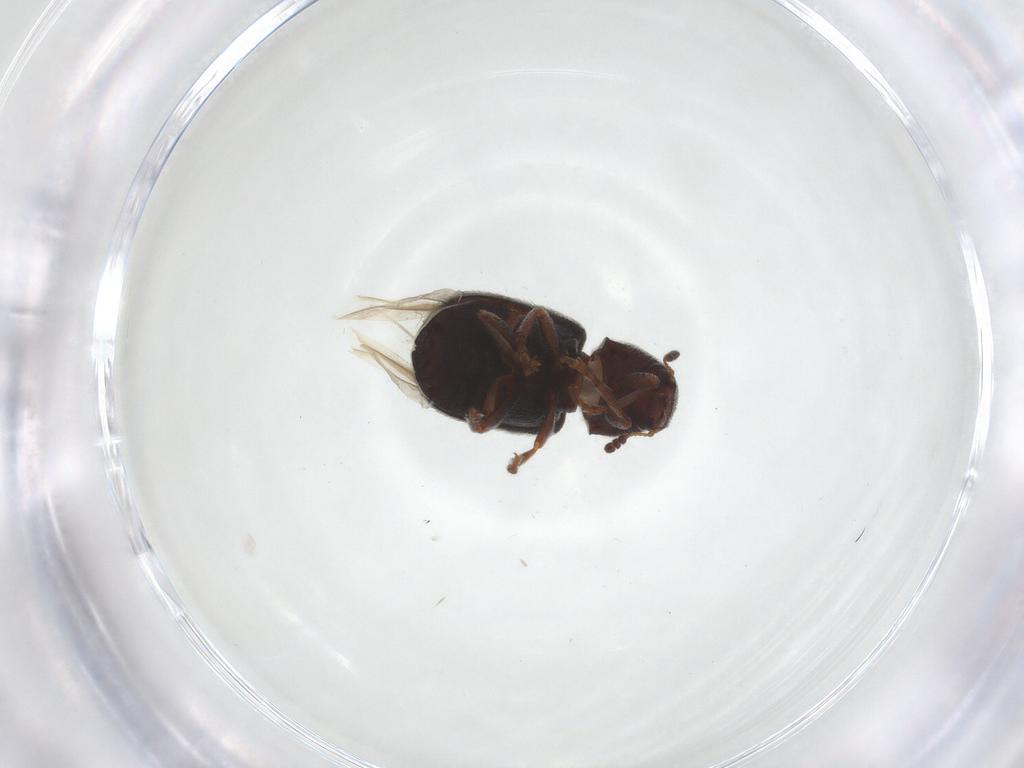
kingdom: Animalia
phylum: Arthropoda
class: Insecta
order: Coleoptera
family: Anthribidae
